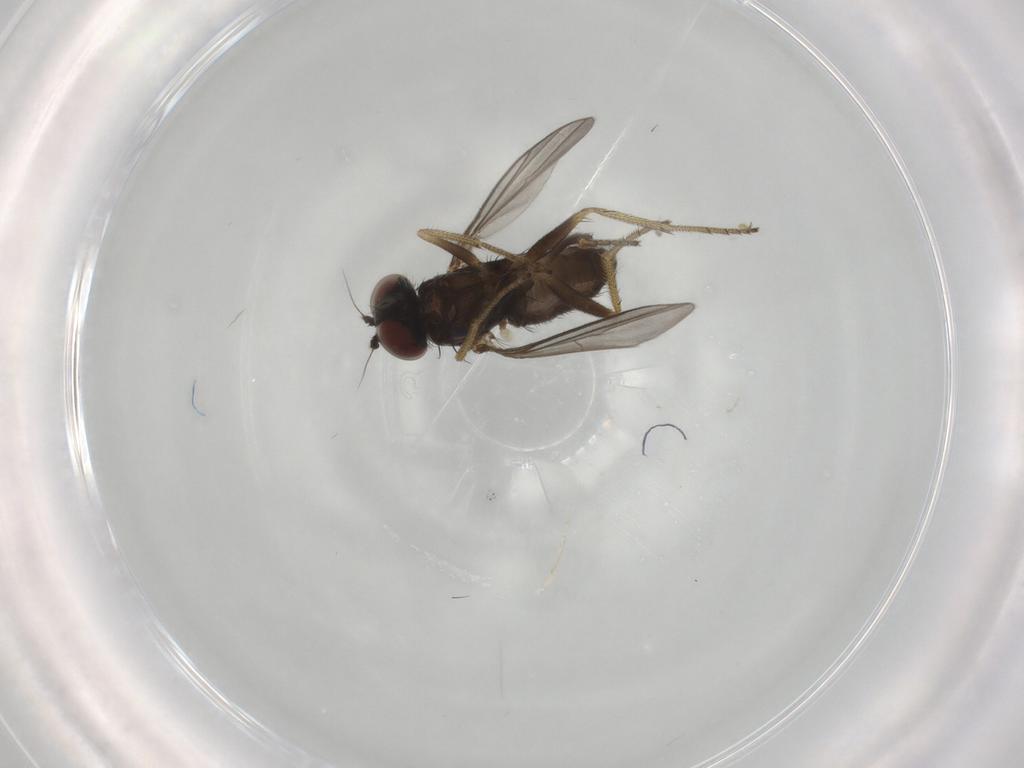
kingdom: Animalia
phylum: Arthropoda
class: Insecta
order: Diptera
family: Dolichopodidae
